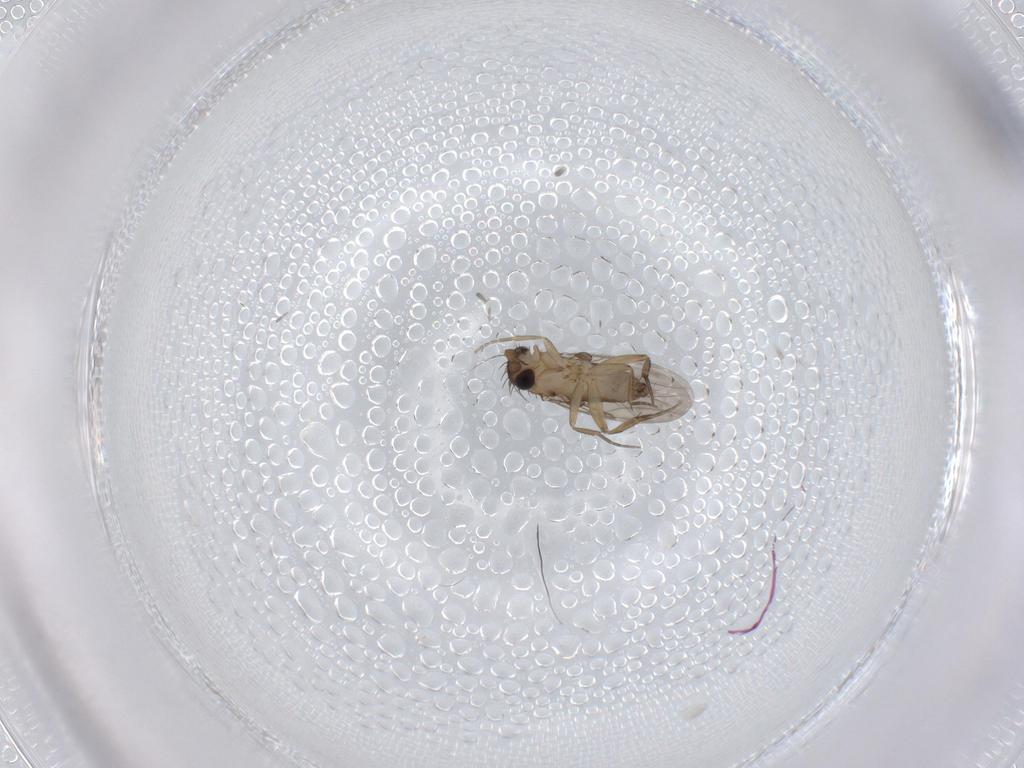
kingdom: Animalia
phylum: Arthropoda
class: Insecta
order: Diptera
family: Phoridae
